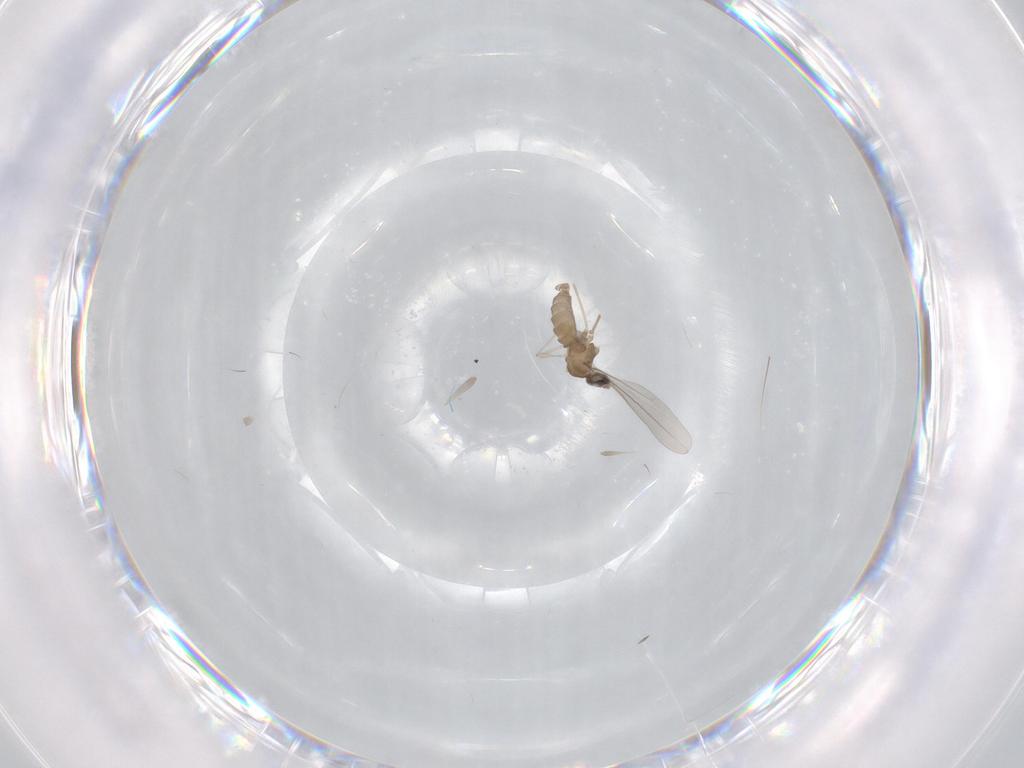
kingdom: Animalia
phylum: Arthropoda
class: Insecta
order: Diptera
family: Cecidomyiidae
